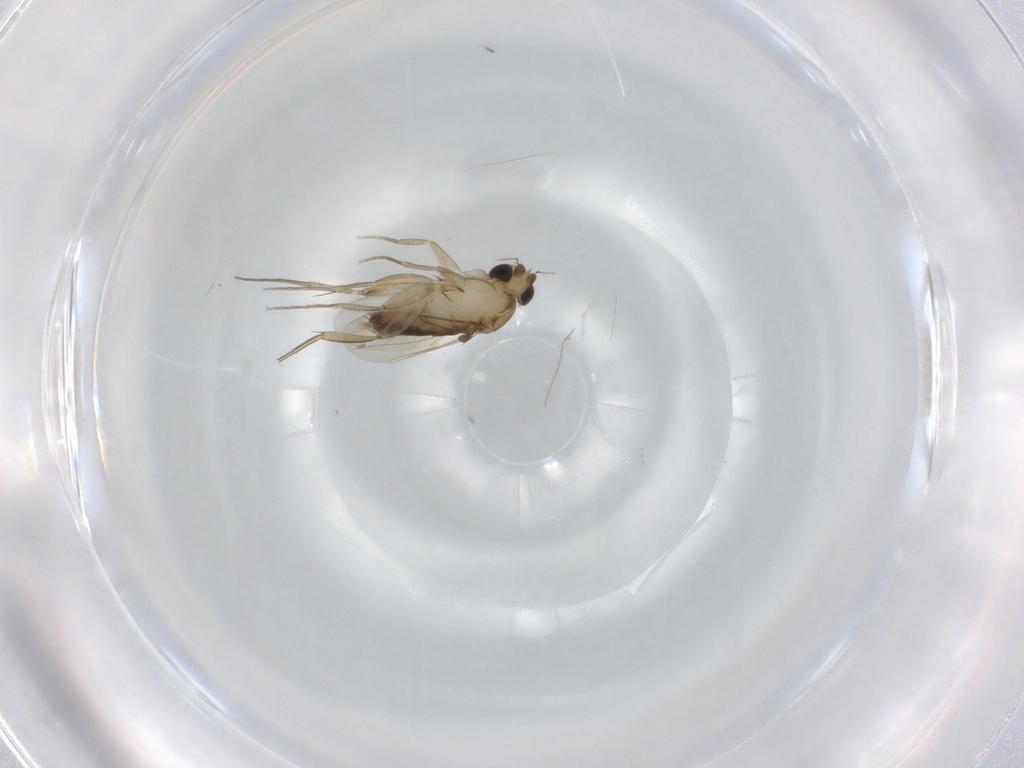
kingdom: Animalia
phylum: Arthropoda
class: Insecta
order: Diptera
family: Phoridae
